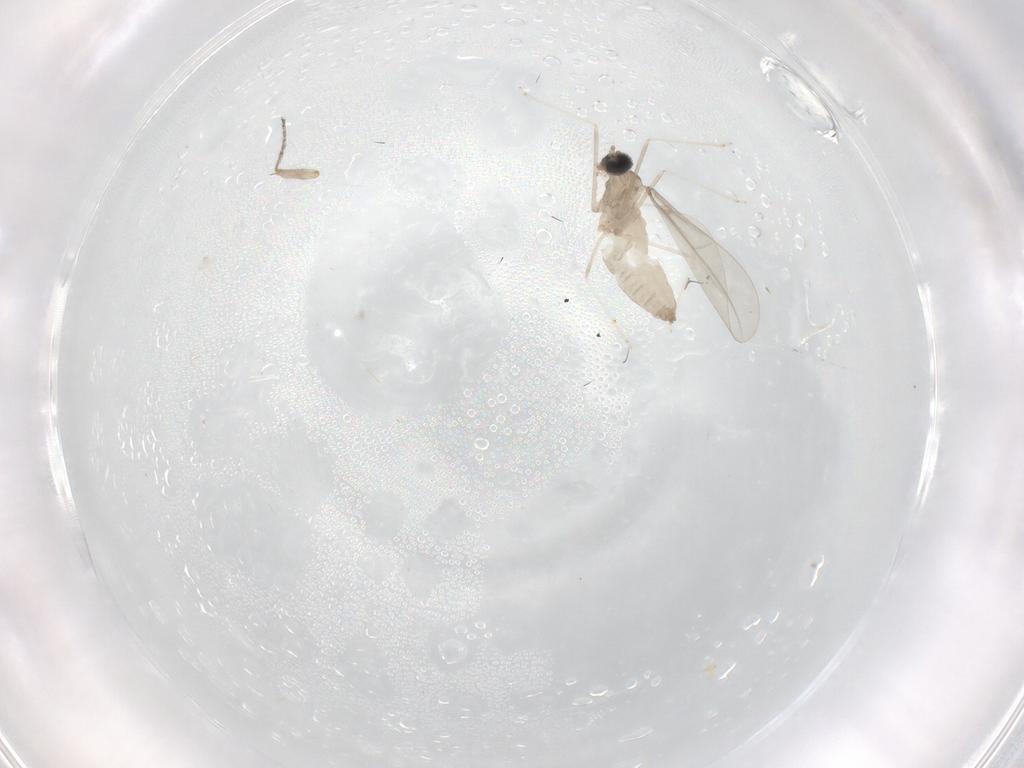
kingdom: Animalia
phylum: Arthropoda
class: Insecta
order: Diptera
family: Cecidomyiidae
